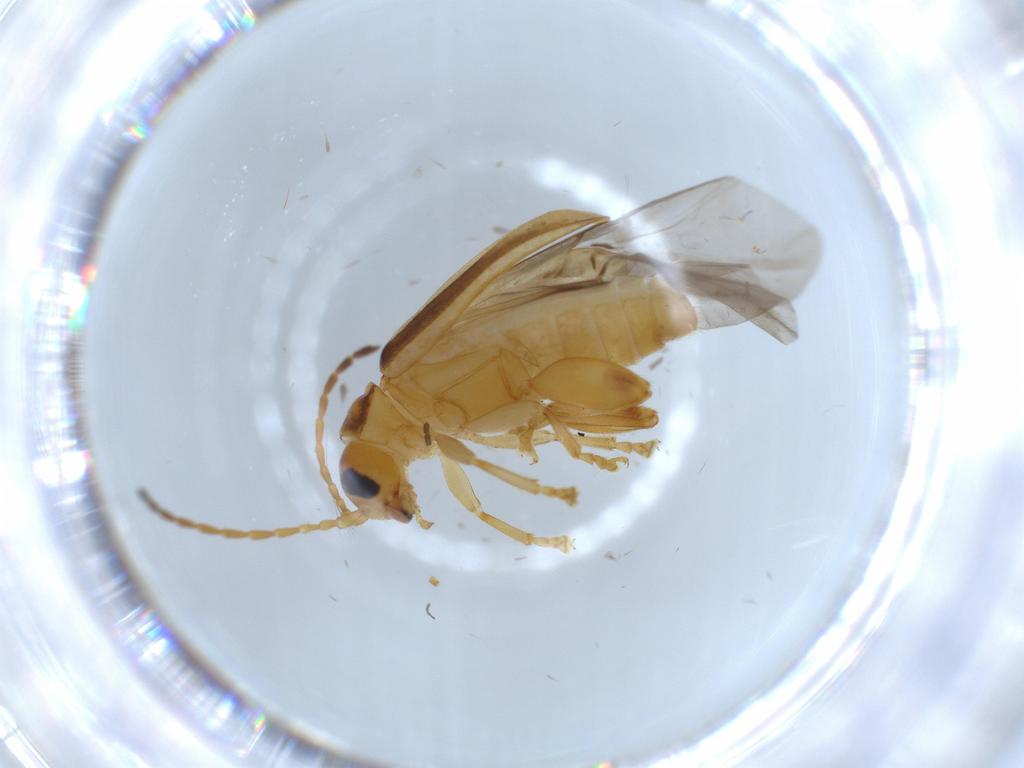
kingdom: Animalia
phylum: Arthropoda
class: Insecta
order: Coleoptera
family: Chrysomelidae
